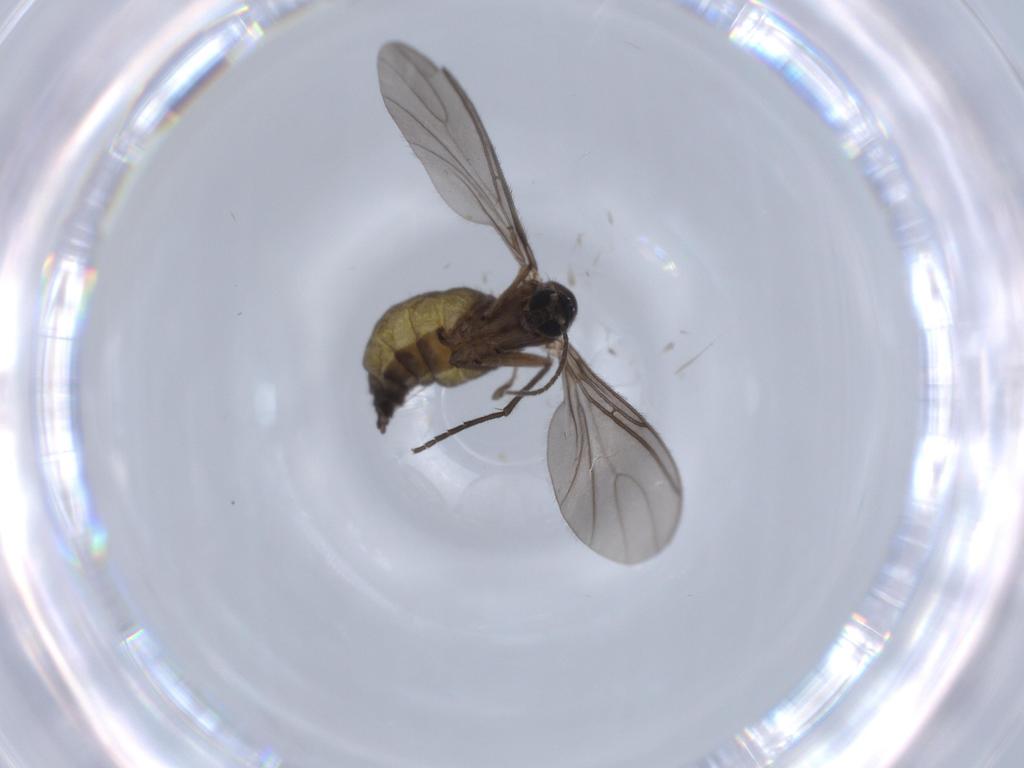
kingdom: Animalia
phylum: Arthropoda
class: Insecta
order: Diptera
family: Sciaridae
